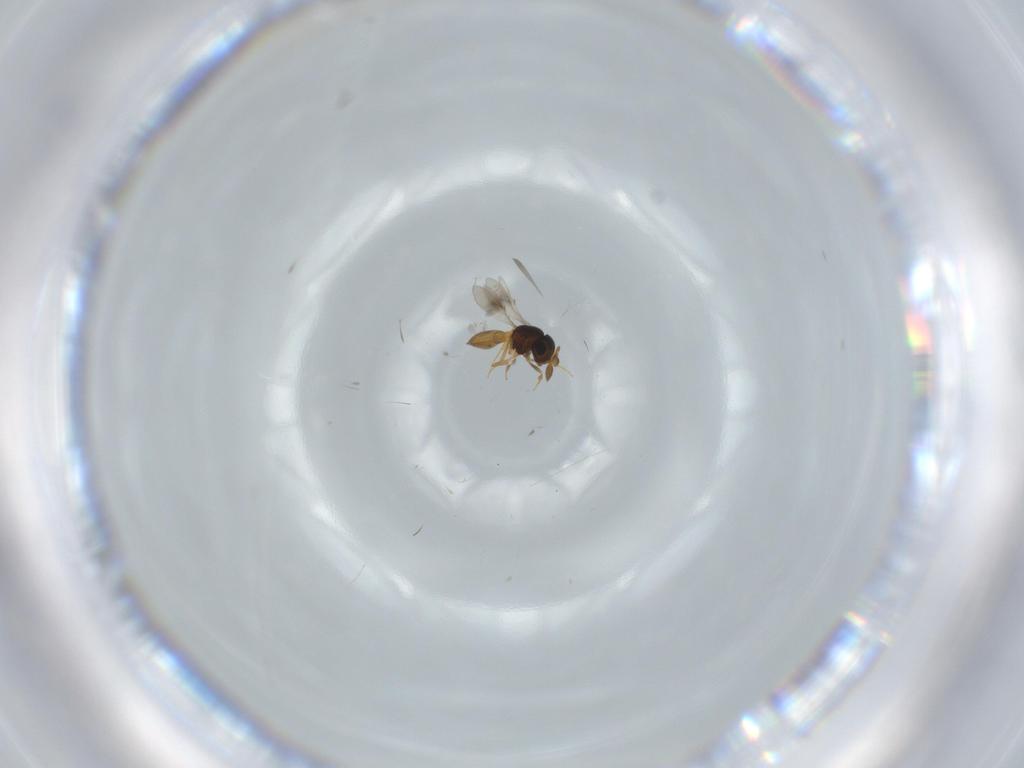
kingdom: Animalia
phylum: Arthropoda
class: Insecta
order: Hymenoptera
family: Scelionidae
